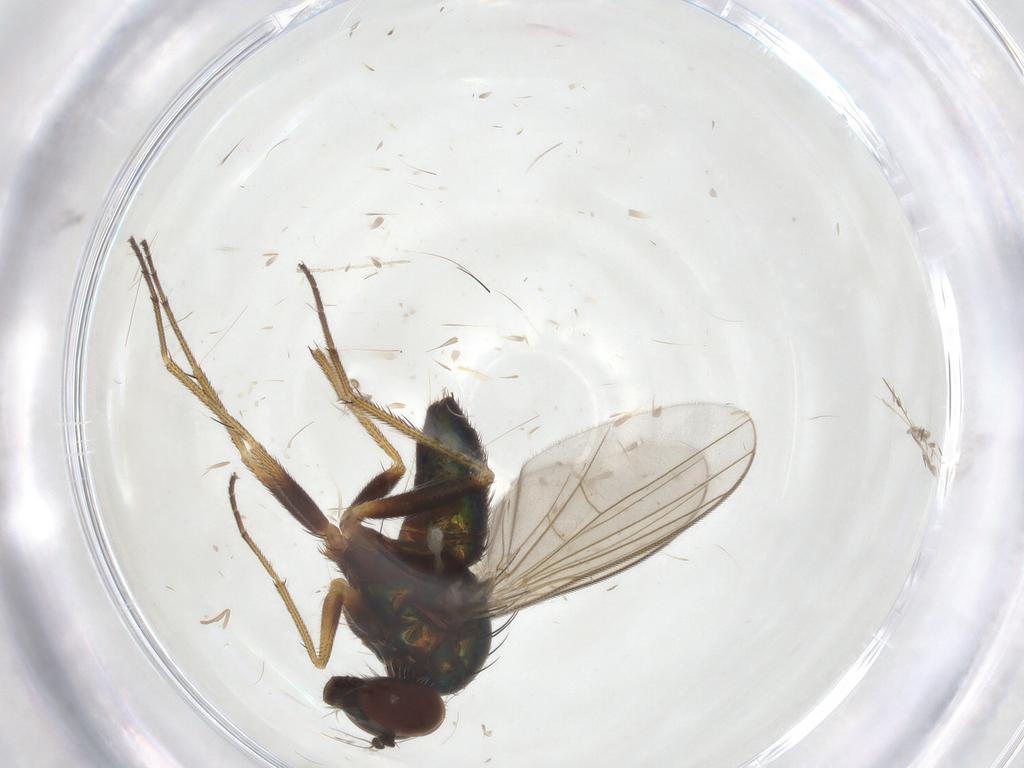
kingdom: Animalia
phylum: Arthropoda
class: Insecta
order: Diptera
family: Dolichopodidae
